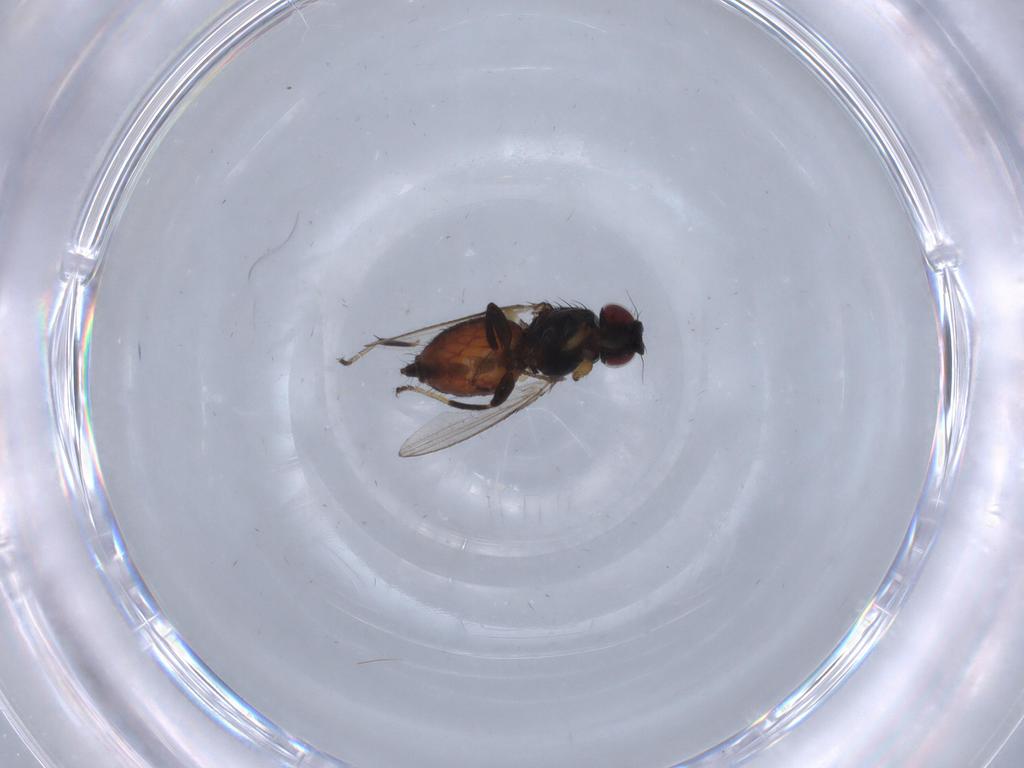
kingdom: Animalia
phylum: Arthropoda
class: Insecta
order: Diptera
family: Milichiidae
